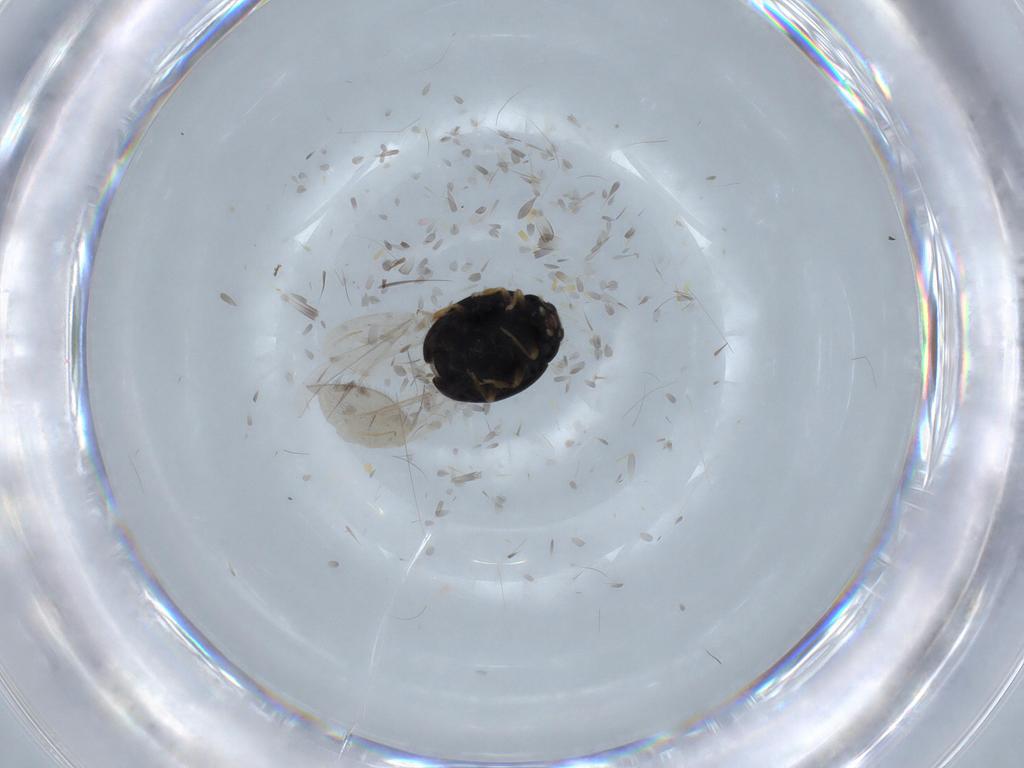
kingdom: Animalia
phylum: Arthropoda
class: Insecta
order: Coleoptera
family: Coccinellidae
